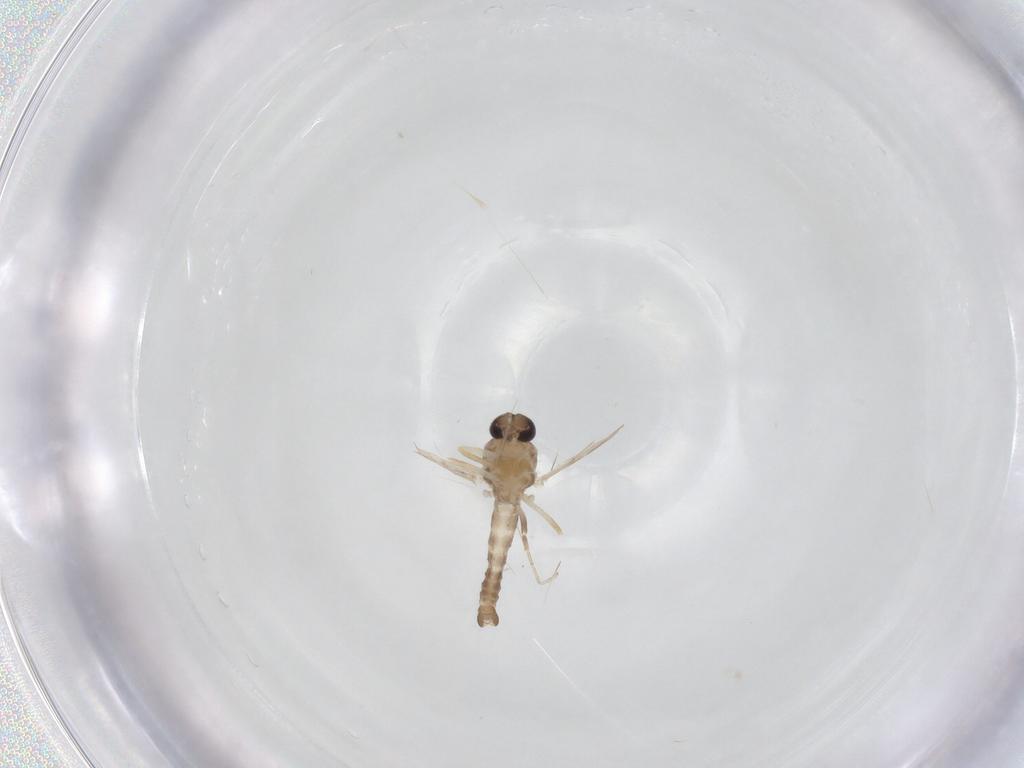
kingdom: Animalia
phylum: Arthropoda
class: Insecta
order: Diptera
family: Ceratopogonidae
